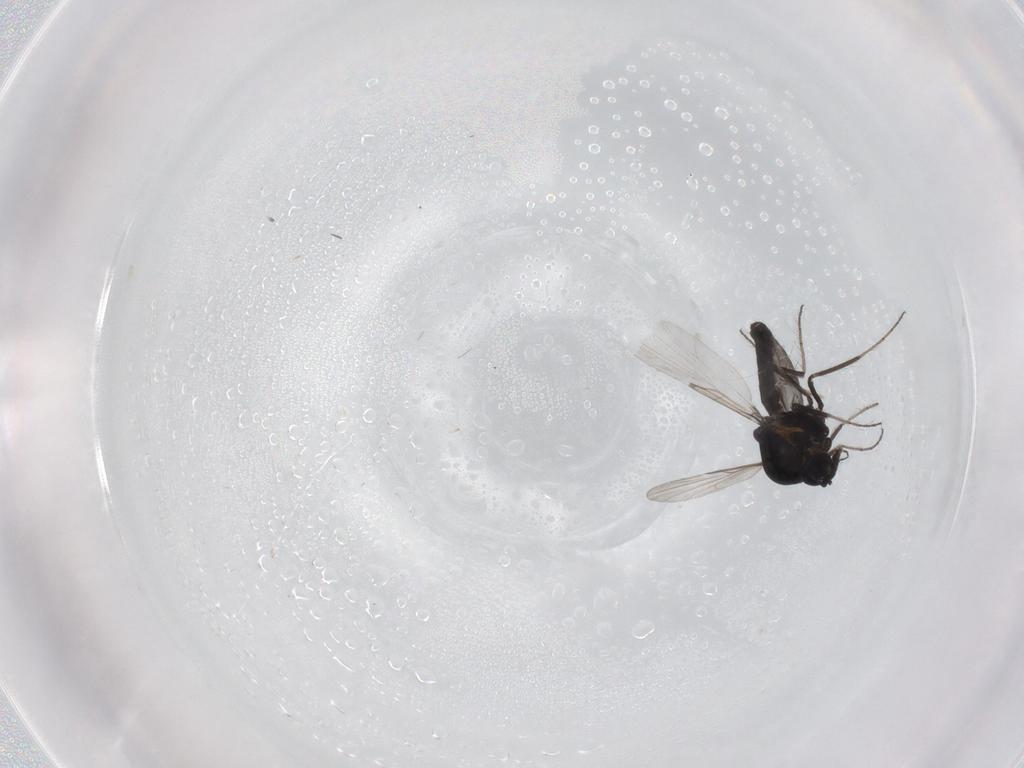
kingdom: Animalia
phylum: Arthropoda
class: Insecta
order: Diptera
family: Ceratopogonidae
